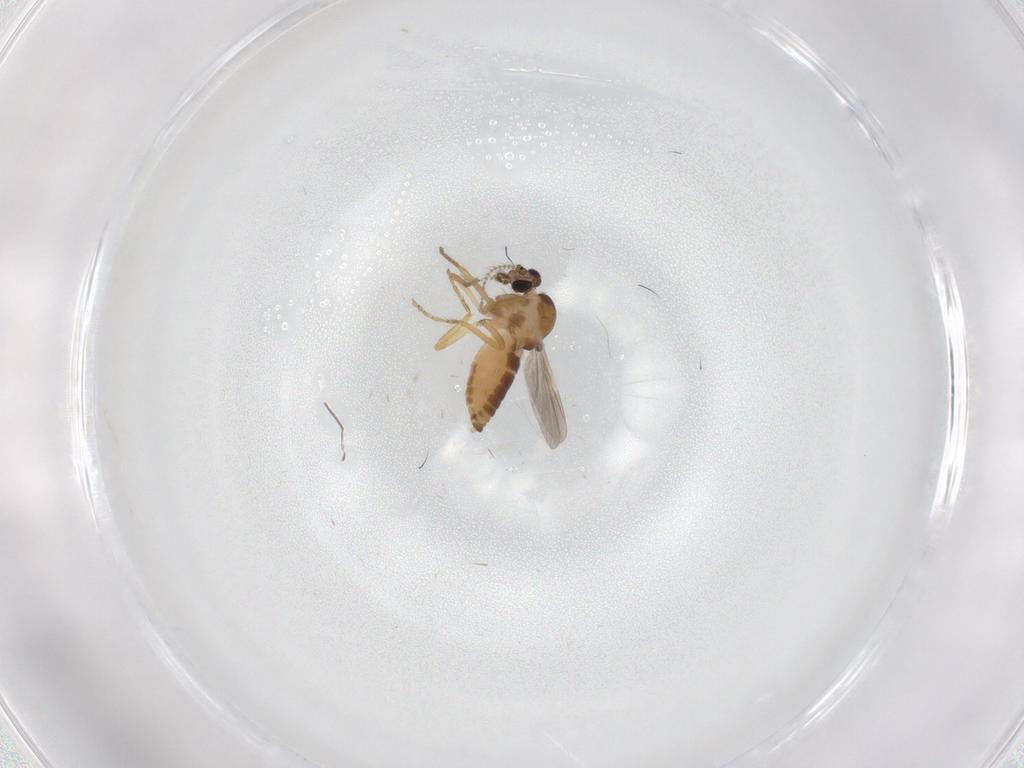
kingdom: Animalia
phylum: Arthropoda
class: Insecta
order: Diptera
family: Ceratopogonidae
